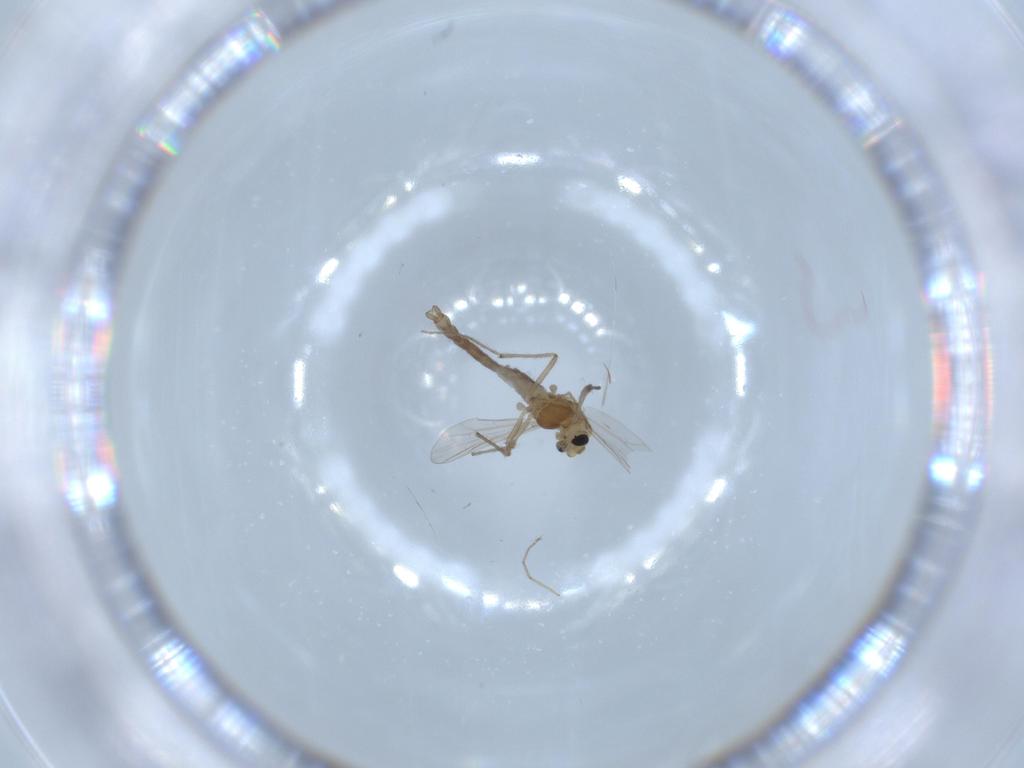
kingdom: Animalia
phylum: Arthropoda
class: Insecta
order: Diptera
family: Chironomidae
